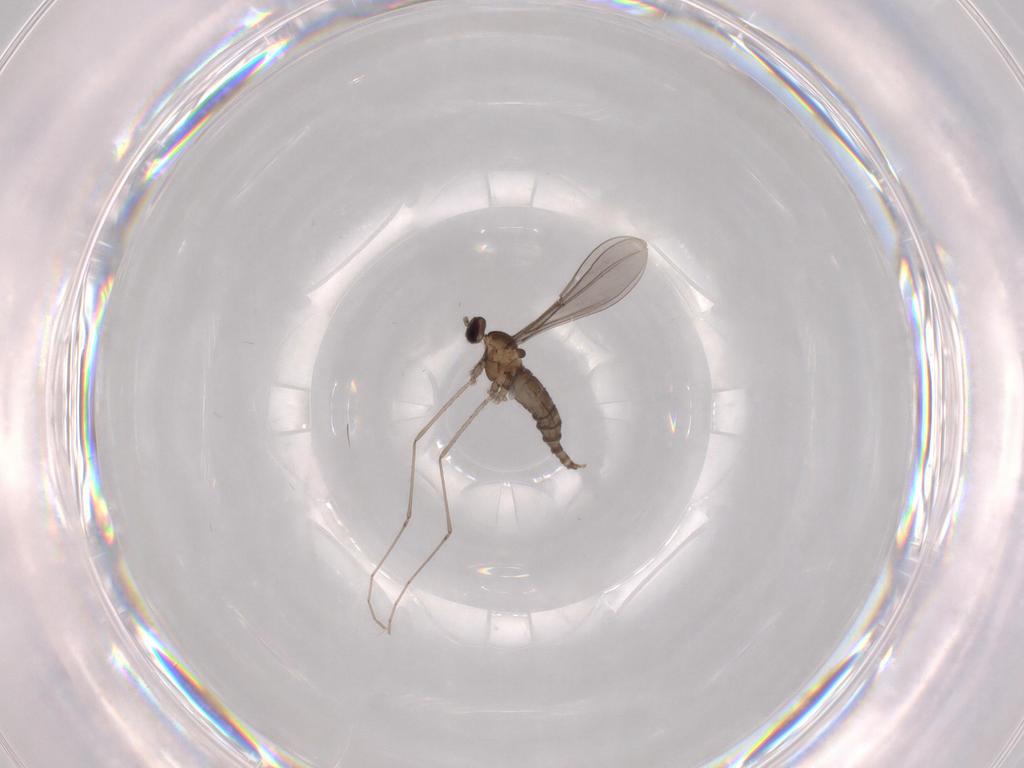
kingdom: Animalia
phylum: Arthropoda
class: Insecta
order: Diptera
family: Cecidomyiidae
